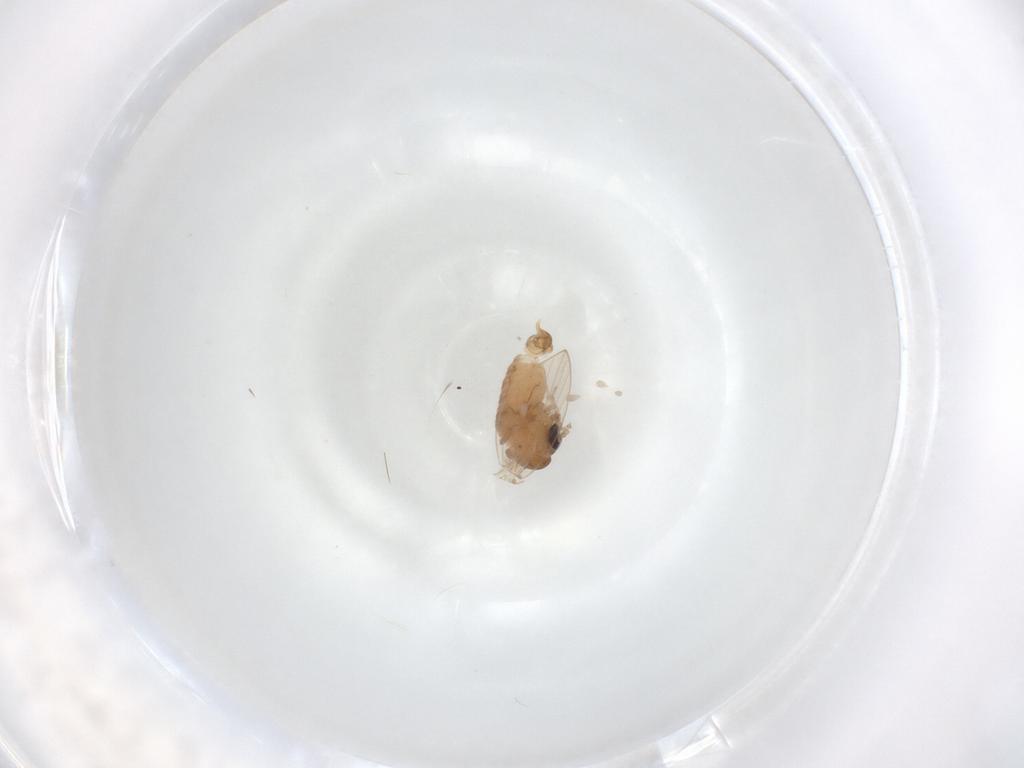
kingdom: Animalia
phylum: Arthropoda
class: Insecta
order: Diptera
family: Psychodidae
